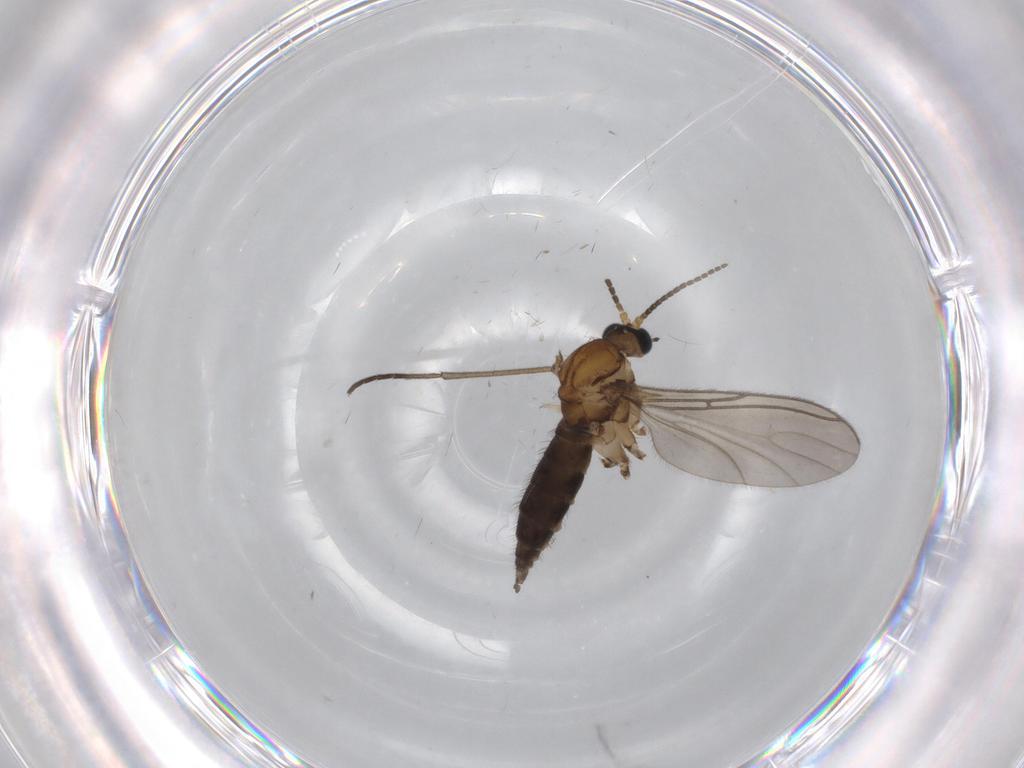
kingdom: Animalia
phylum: Arthropoda
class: Insecta
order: Diptera
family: Sciaridae
